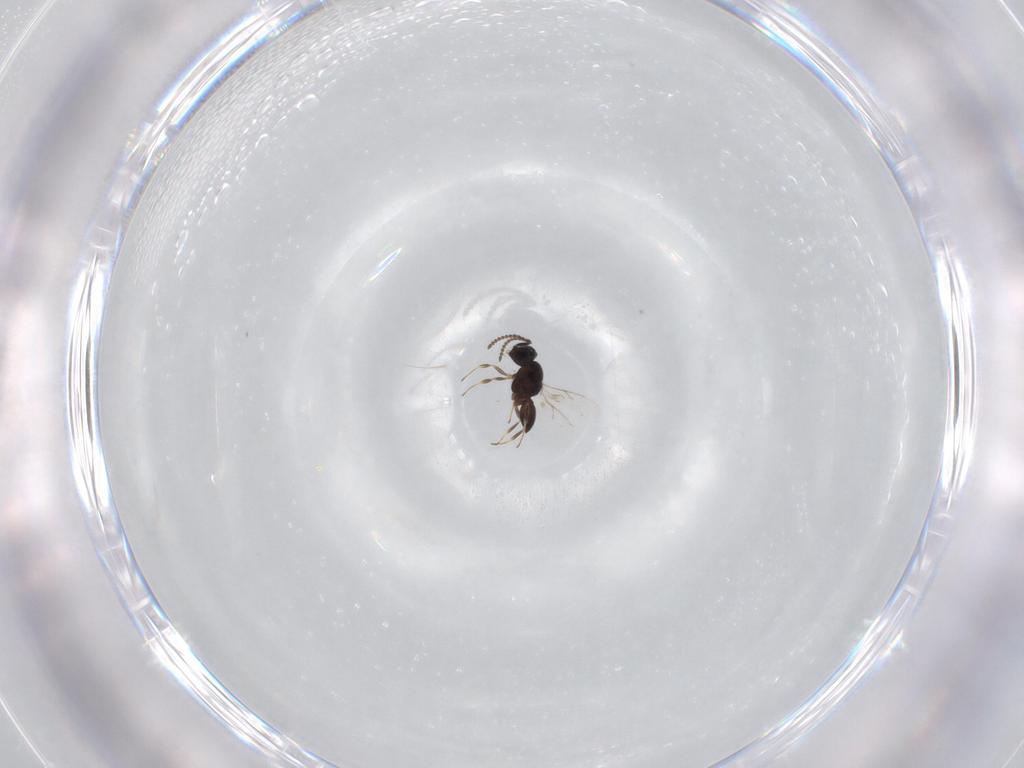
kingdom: Animalia
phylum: Arthropoda
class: Insecta
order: Hymenoptera
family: Scelionidae
